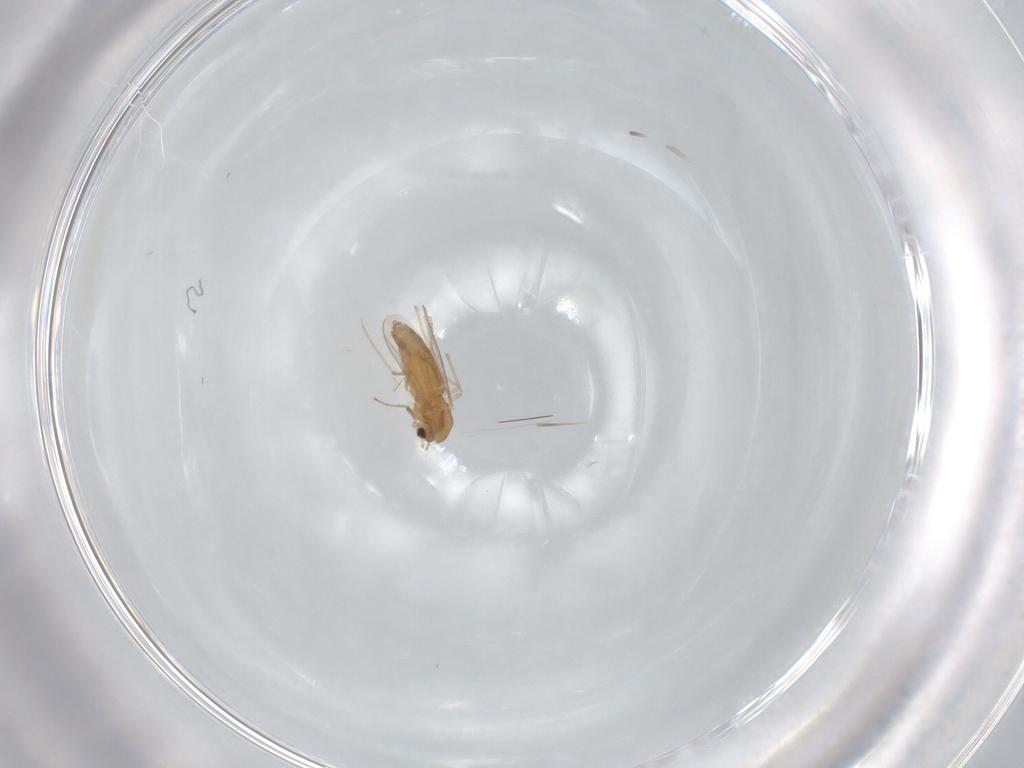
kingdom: Animalia
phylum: Arthropoda
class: Insecta
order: Diptera
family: Chironomidae
